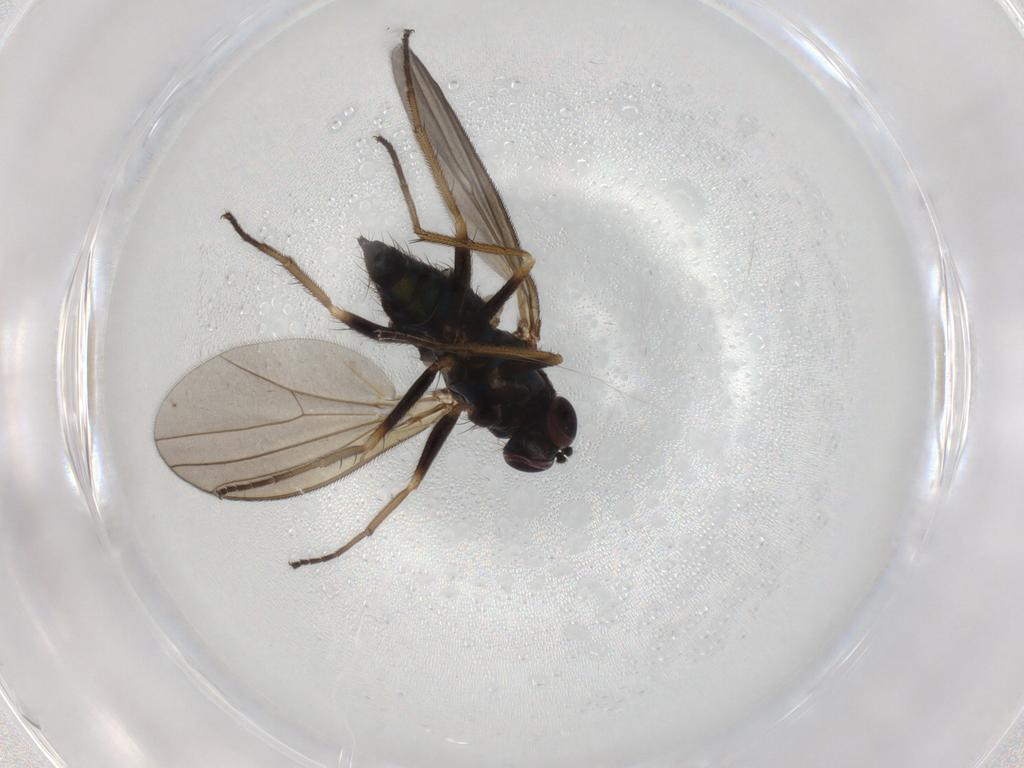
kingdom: Animalia
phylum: Arthropoda
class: Insecta
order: Diptera
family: Dolichopodidae
